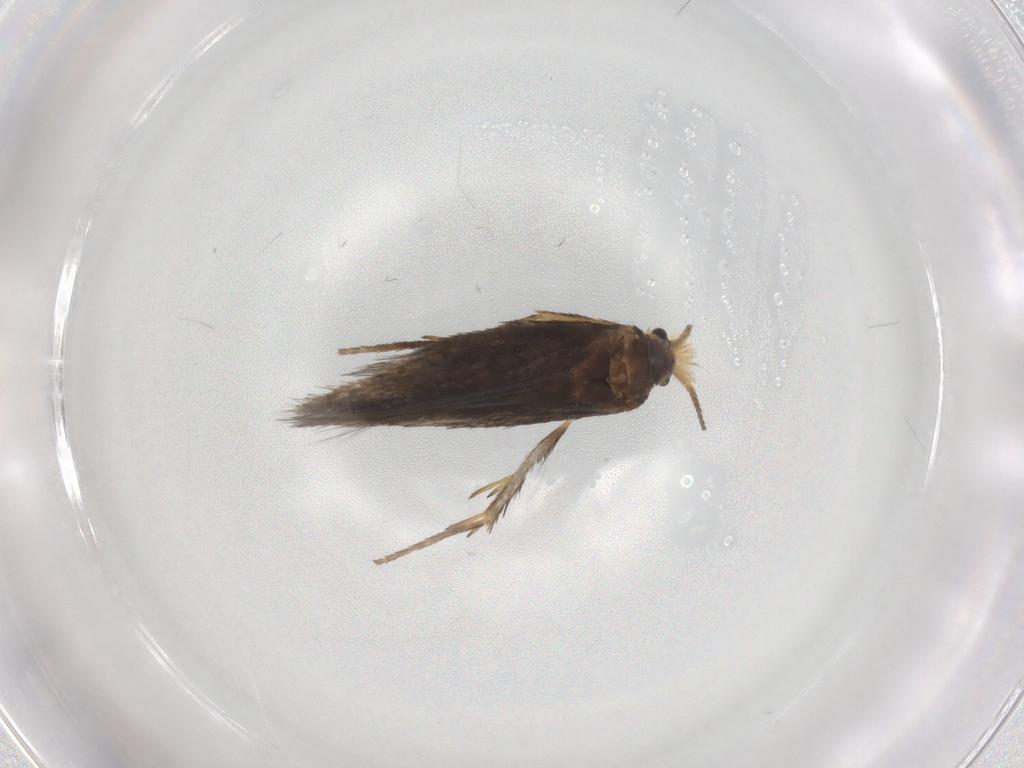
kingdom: Animalia
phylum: Arthropoda
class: Insecta
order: Lepidoptera
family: Nepticulidae
